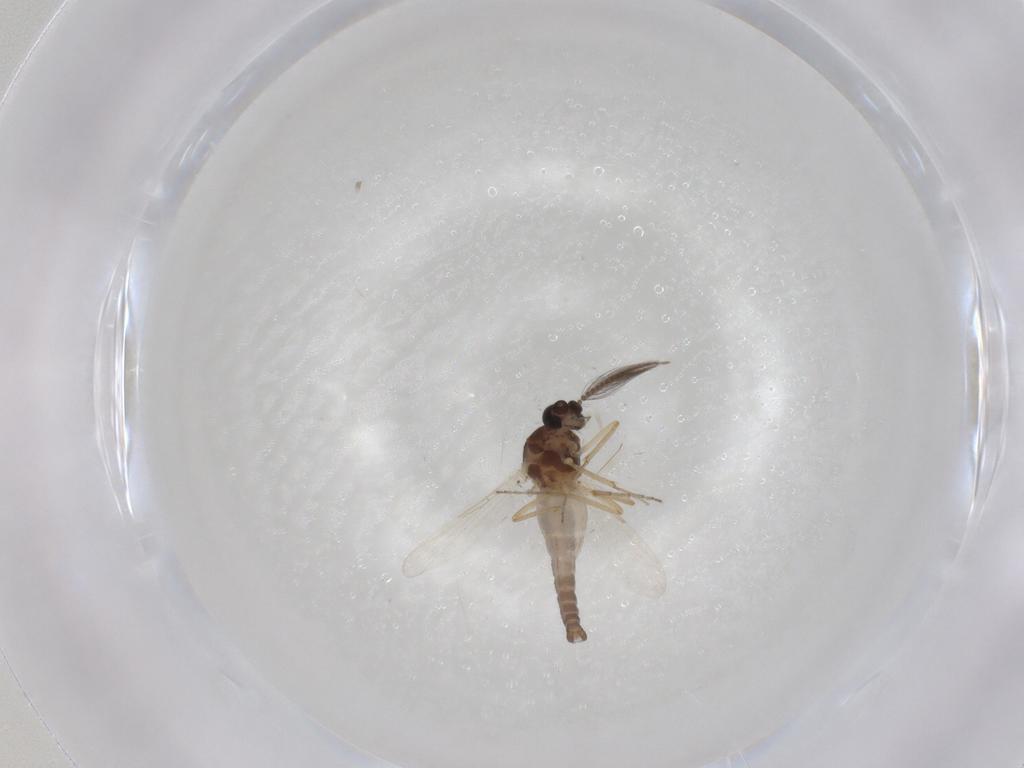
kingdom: Animalia
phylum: Arthropoda
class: Insecta
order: Diptera
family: Ceratopogonidae
